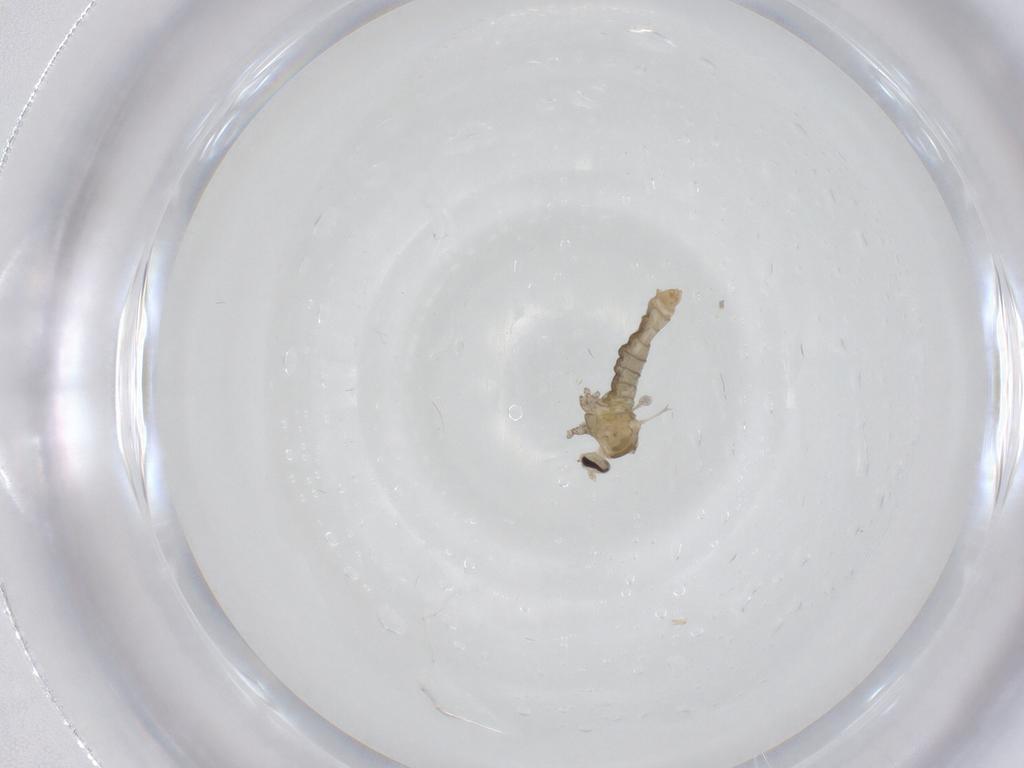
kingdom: Animalia
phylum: Arthropoda
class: Insecta
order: Diptera
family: Cecidomyiidae
